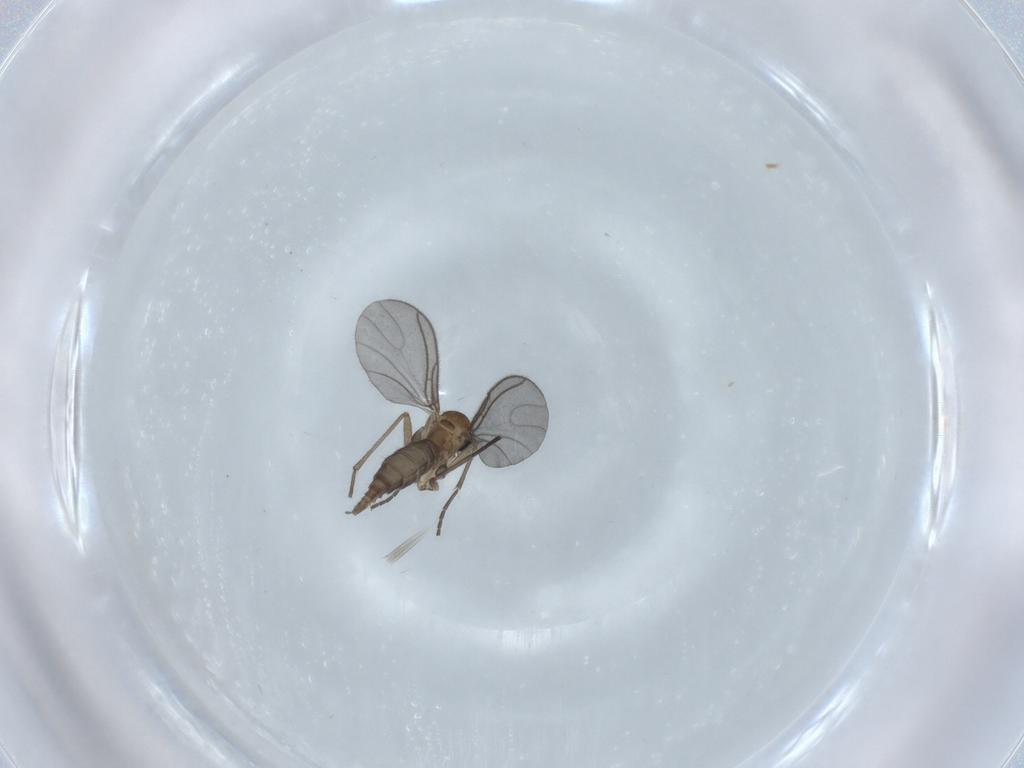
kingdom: Animalia
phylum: Arthropoda
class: Insecta
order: Diptera
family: Sciaridae
